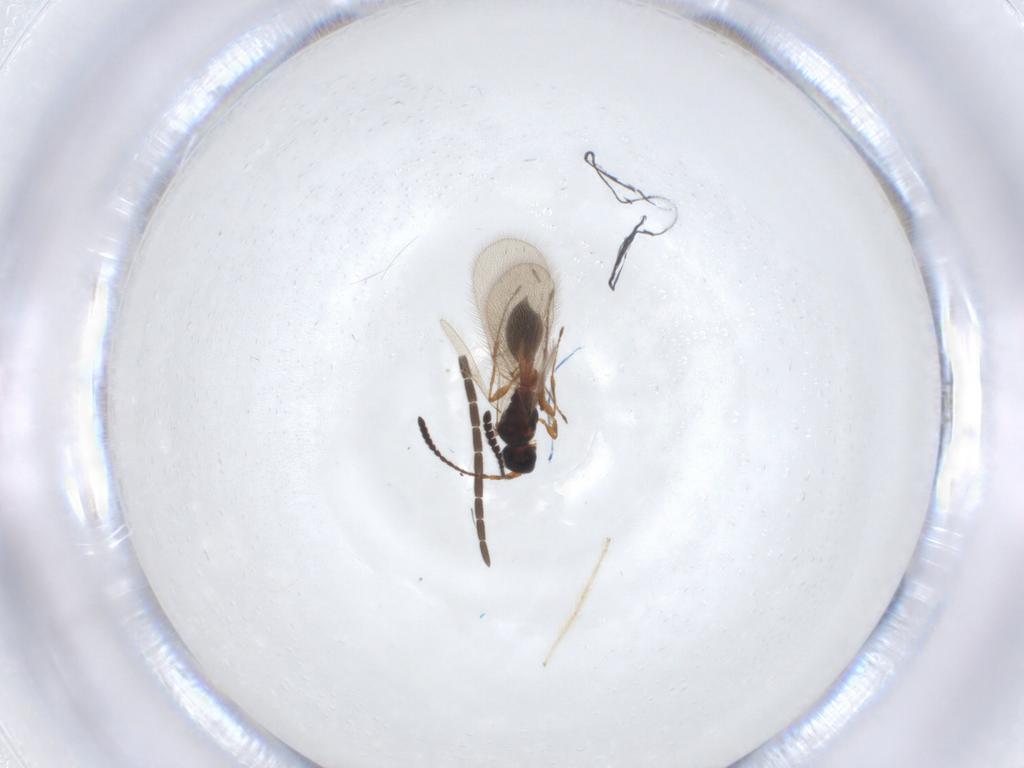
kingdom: Animalia
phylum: Arthropoda
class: Insecta
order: Hymenoptera
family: Diapriidae
